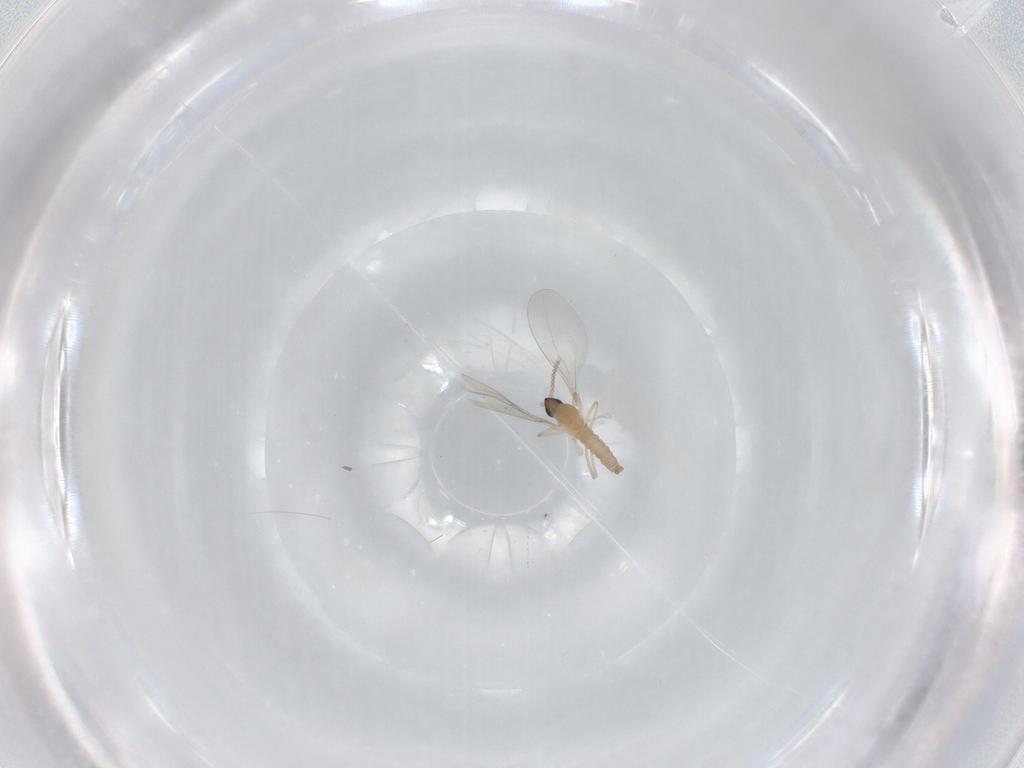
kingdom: Animalia
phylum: Arthropoda
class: Insecta
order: Diptera
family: Cecidomyiidae
